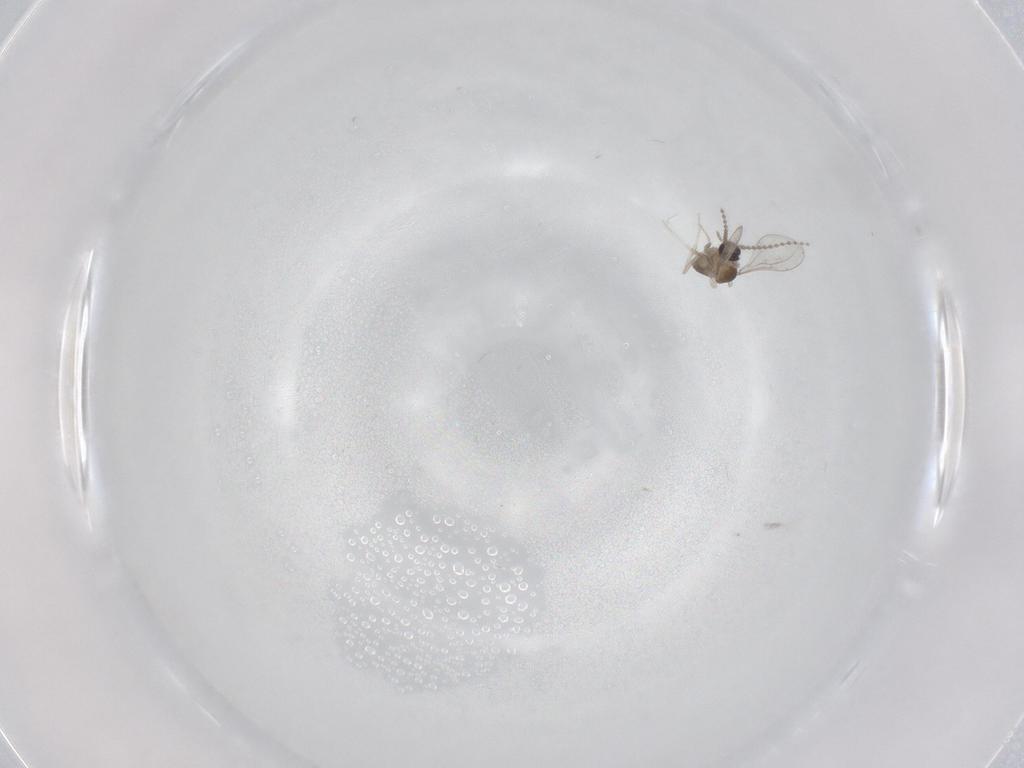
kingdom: Animalia
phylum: Arthropoda
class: Insecta
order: Diptera
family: Cecidomyiidae
